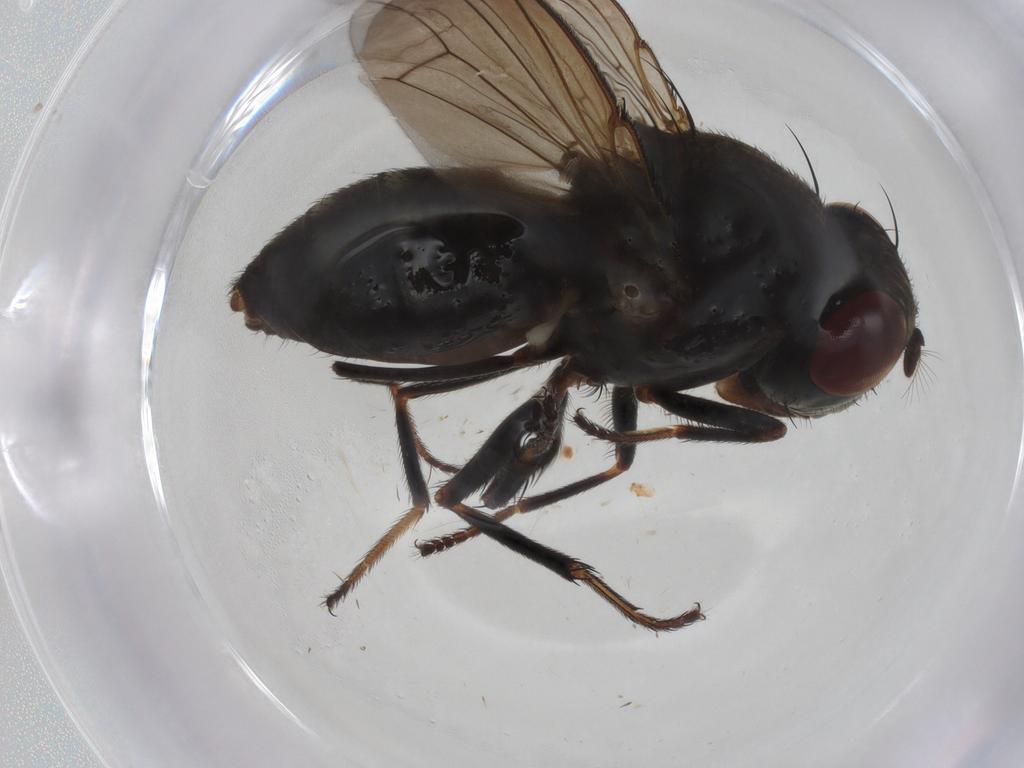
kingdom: Animalia
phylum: Arthropoda
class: Insecta
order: Diptera
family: Ephydridae
